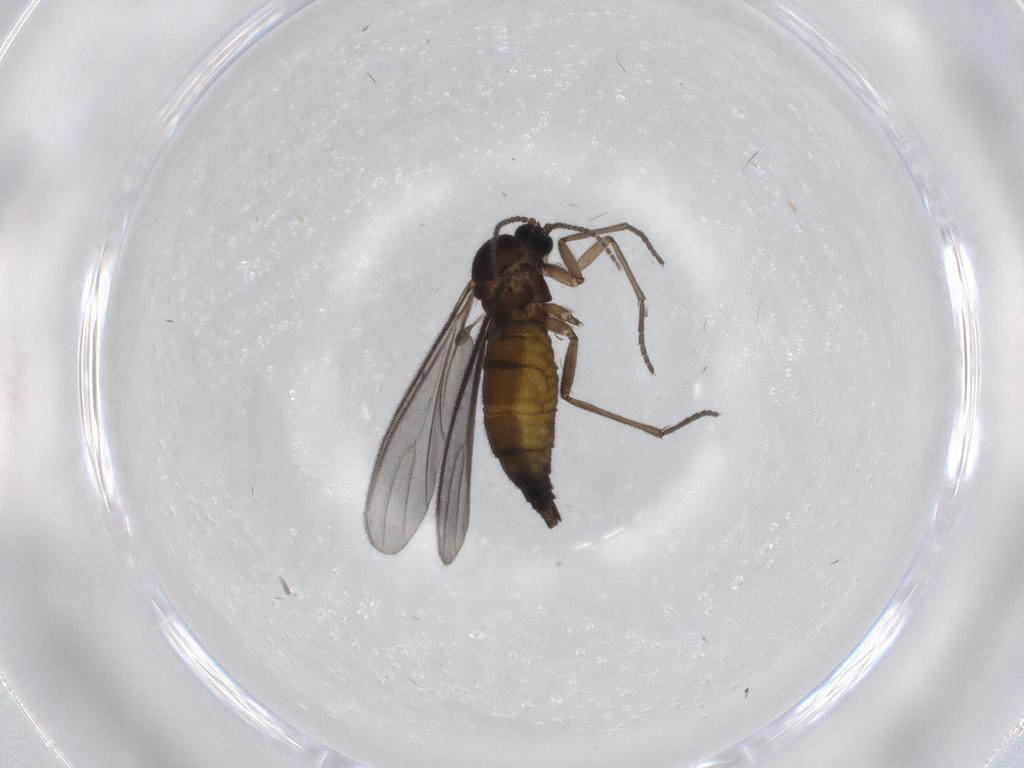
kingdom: Animalia
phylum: Arthropoda
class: Insecta
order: Diptera
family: Sciaridae
